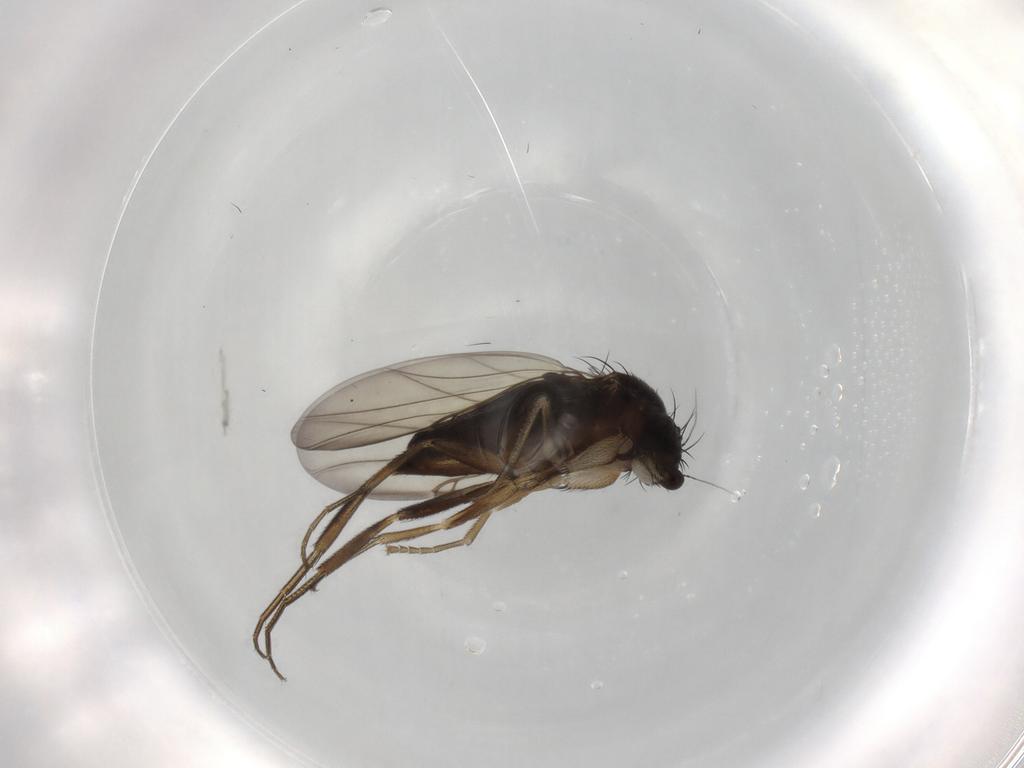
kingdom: Animalia
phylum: Arthropoda
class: Insecta
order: Diptera
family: Phoridae
